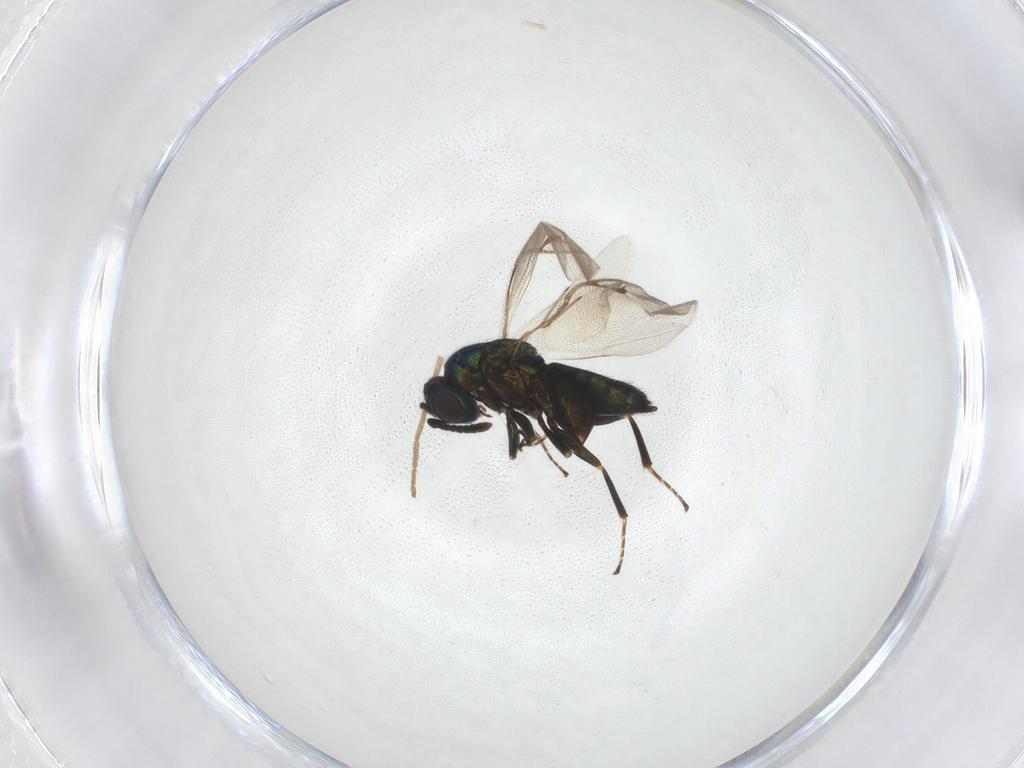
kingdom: Animalia
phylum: Arthropoda
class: Insecta
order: Hymenoptera
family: Pteromalidae
